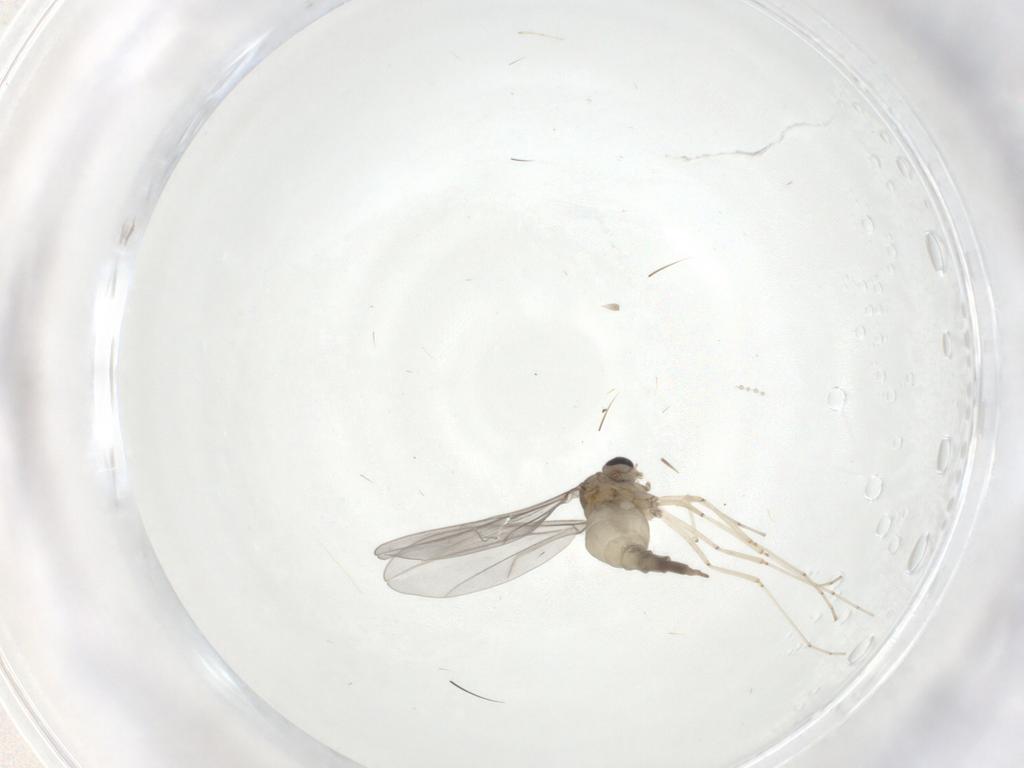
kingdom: Animalia
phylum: Arthropoda
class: Insecta
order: Diptera
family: Cecidomyiidae
